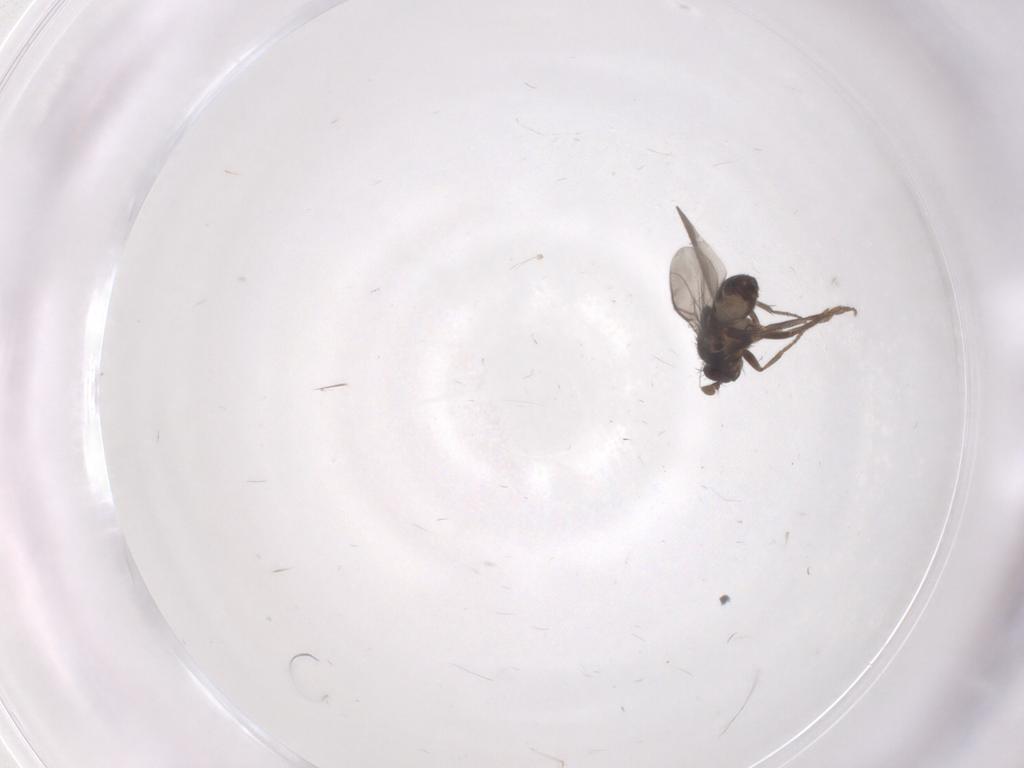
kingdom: Animalia
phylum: Arthropoda
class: Insecta
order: Diptera
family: Sphaeroceridae
